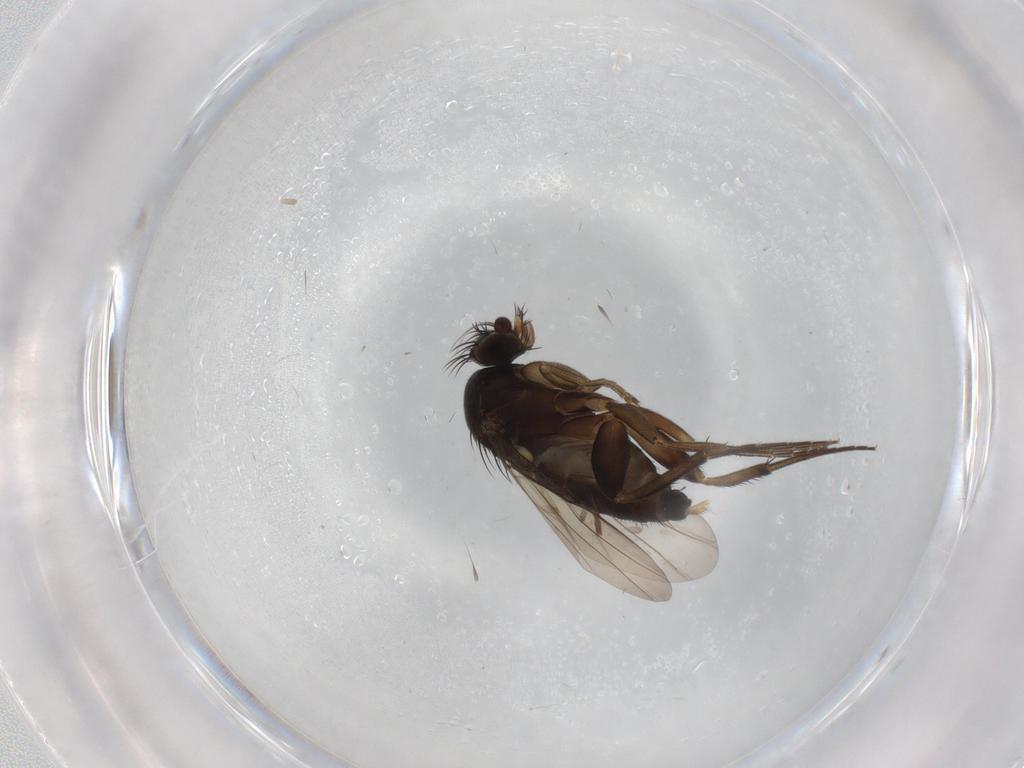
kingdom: Animalia
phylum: Arthropoda
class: Insecta
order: Diptera
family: Phoridae
